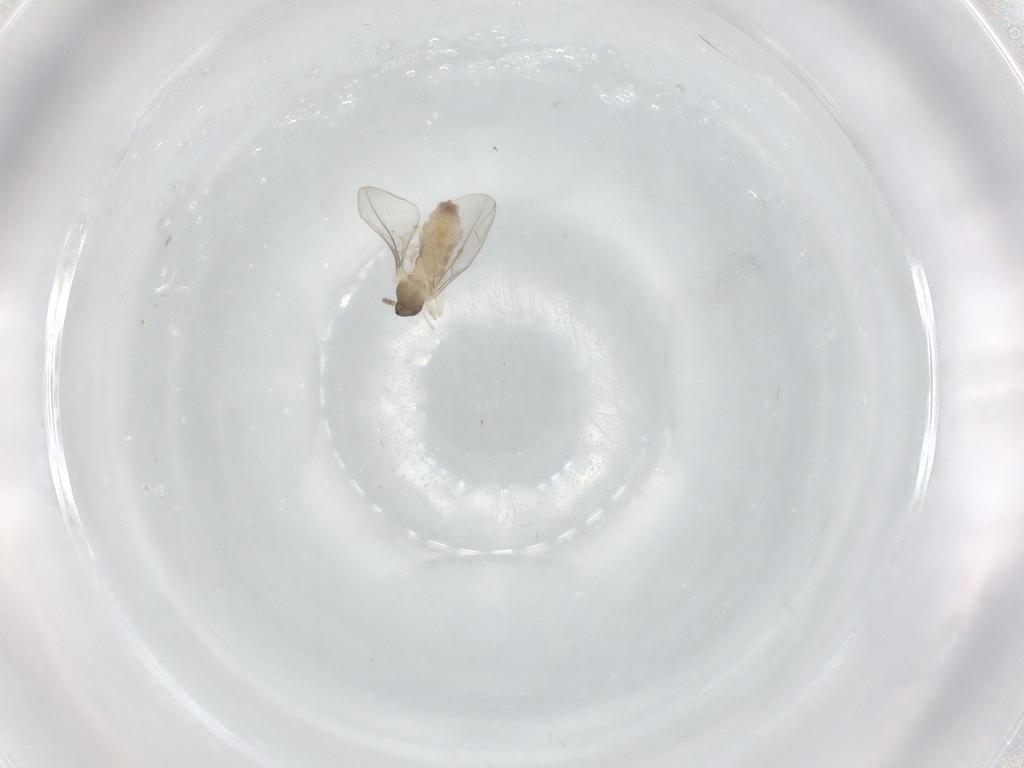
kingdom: Animalia
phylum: Arthropoda
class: Insecta
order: Diptera
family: Cecidomyiidae
